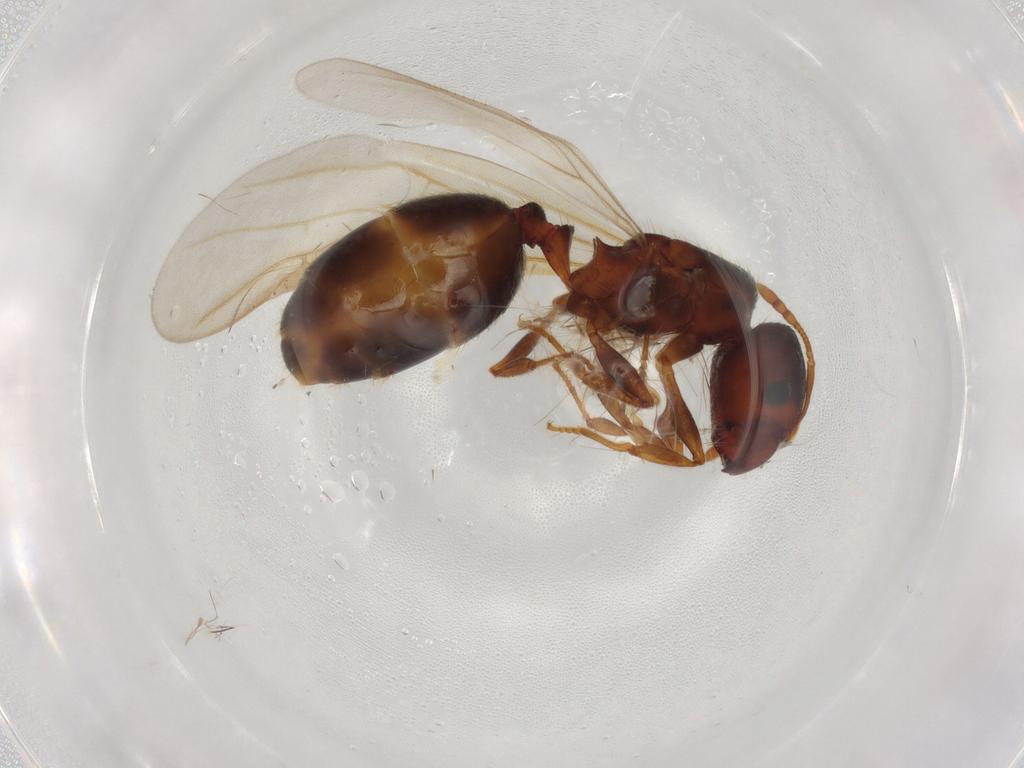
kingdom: Animalia
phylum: Arthropoda
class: Insecta
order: Hymenoptera
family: Formicidae
